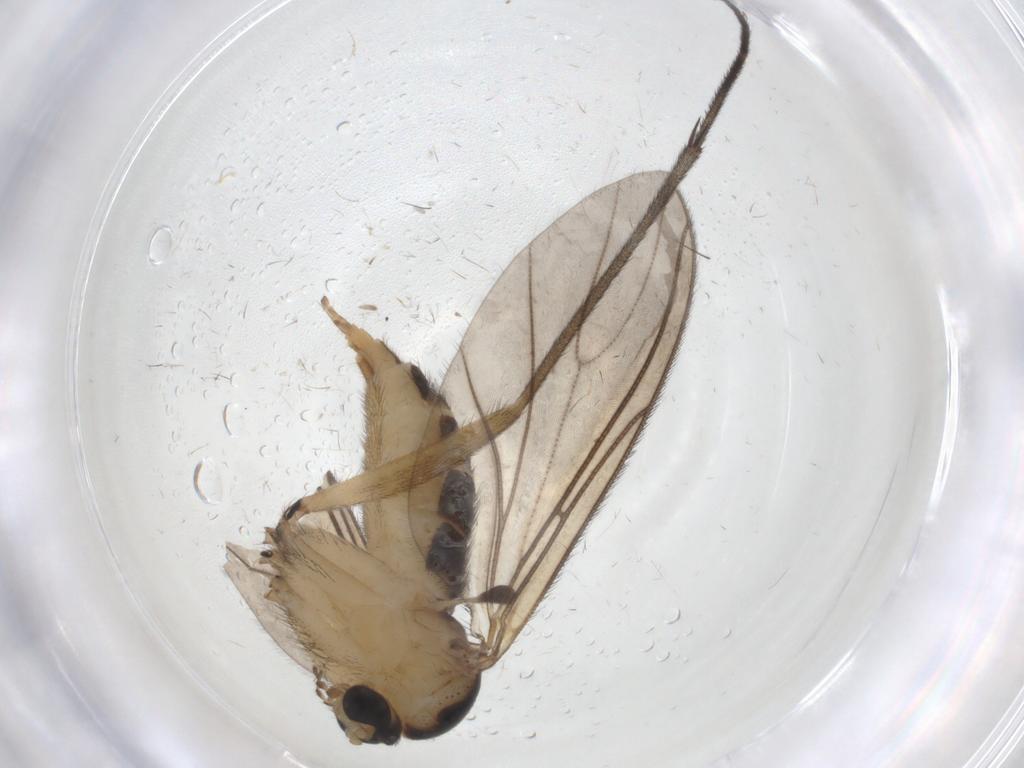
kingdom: Animalia
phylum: Arthropoda
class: Insecta
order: Diptera
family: Sciaridae
